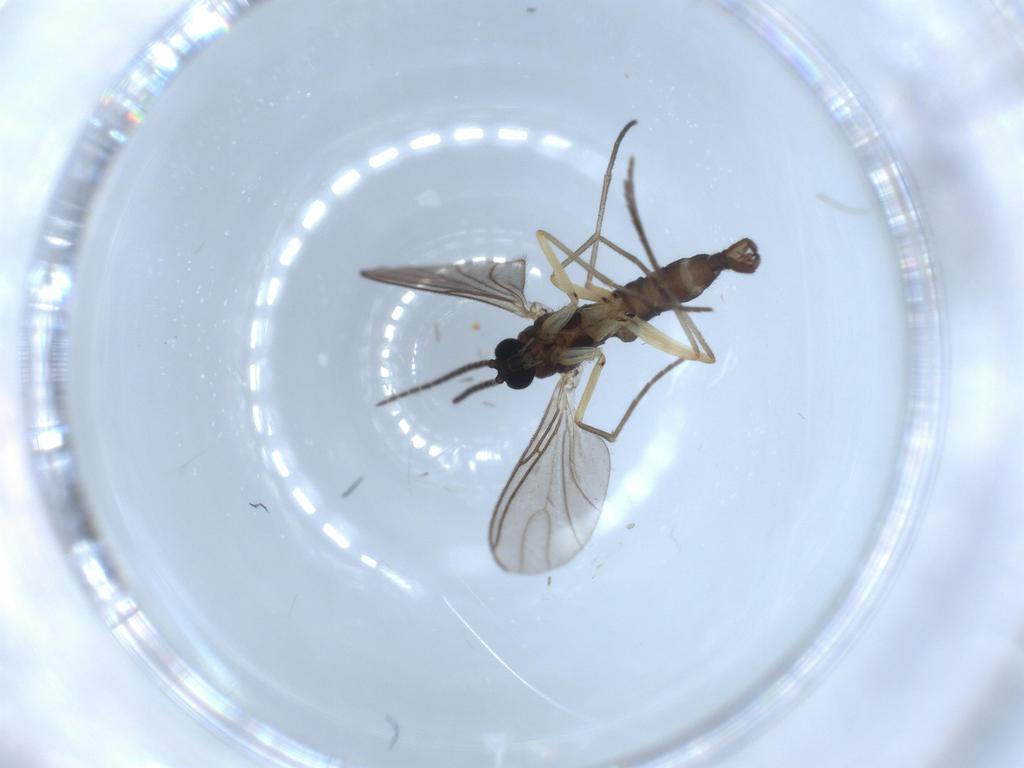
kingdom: Animalia
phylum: Arthropoda
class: Insecta
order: Diptera
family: Sciaridae
